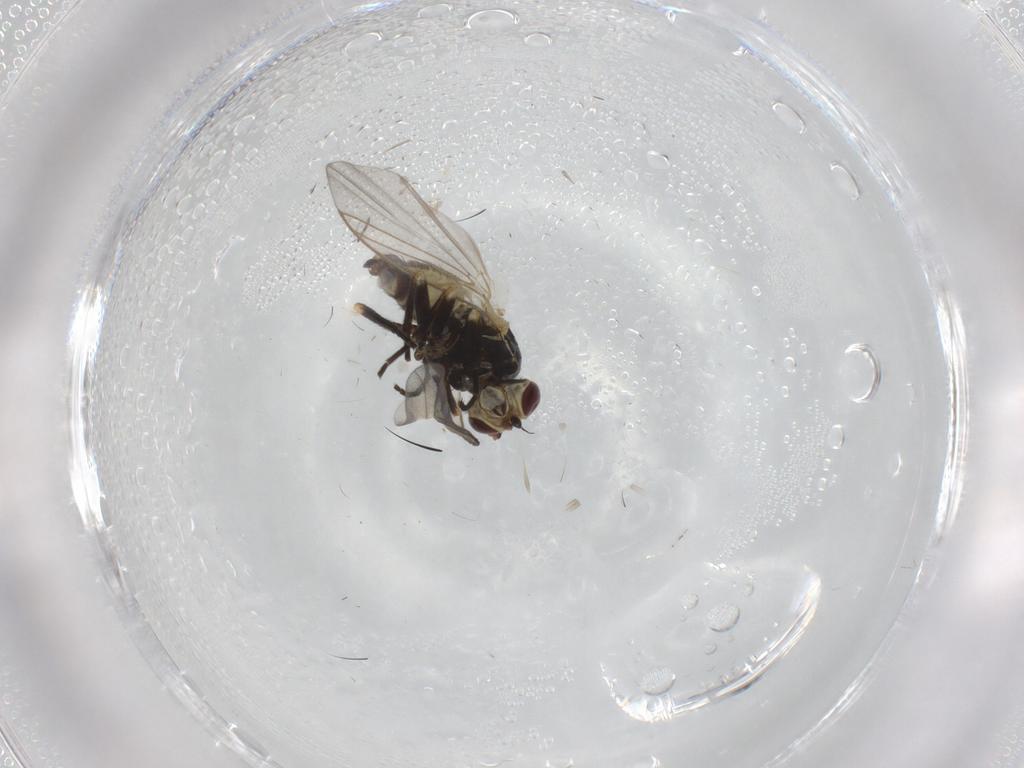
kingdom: Animalia
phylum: Arthropoda
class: Insecta
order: Diptera
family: Agromyzidae
